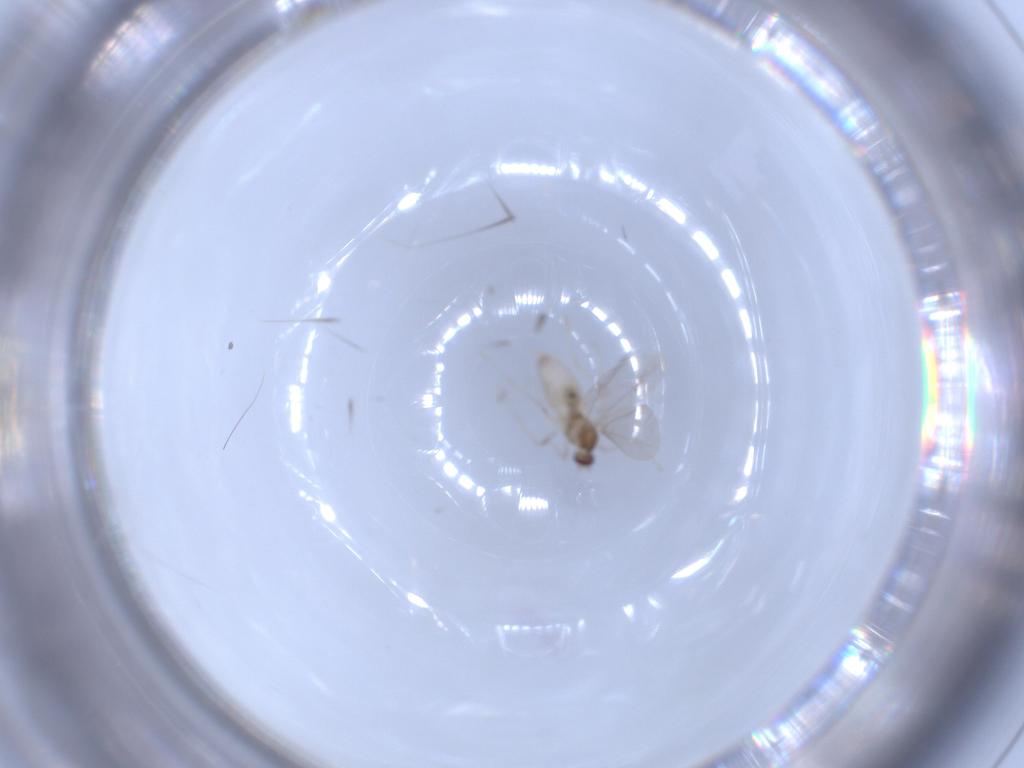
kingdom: Animalia
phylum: Arthropoda
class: Insecta
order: Diptera
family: Cecidomyiidae
